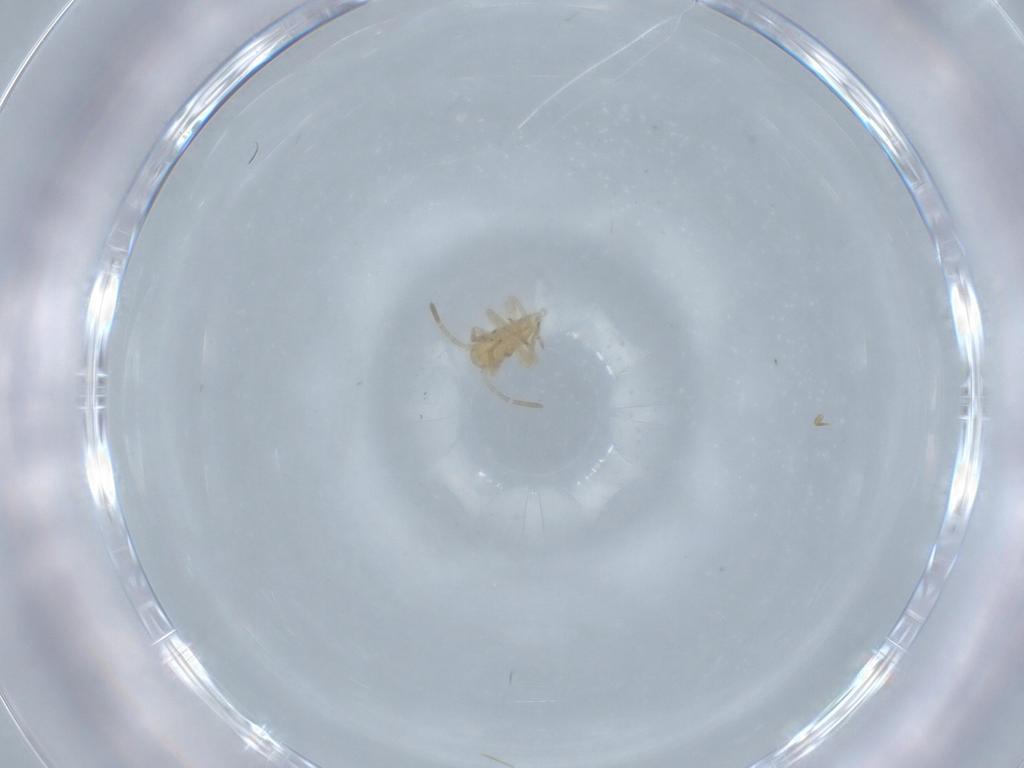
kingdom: Animalia
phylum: Arthropoda
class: Insecta
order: Hemiptera
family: Miridae
